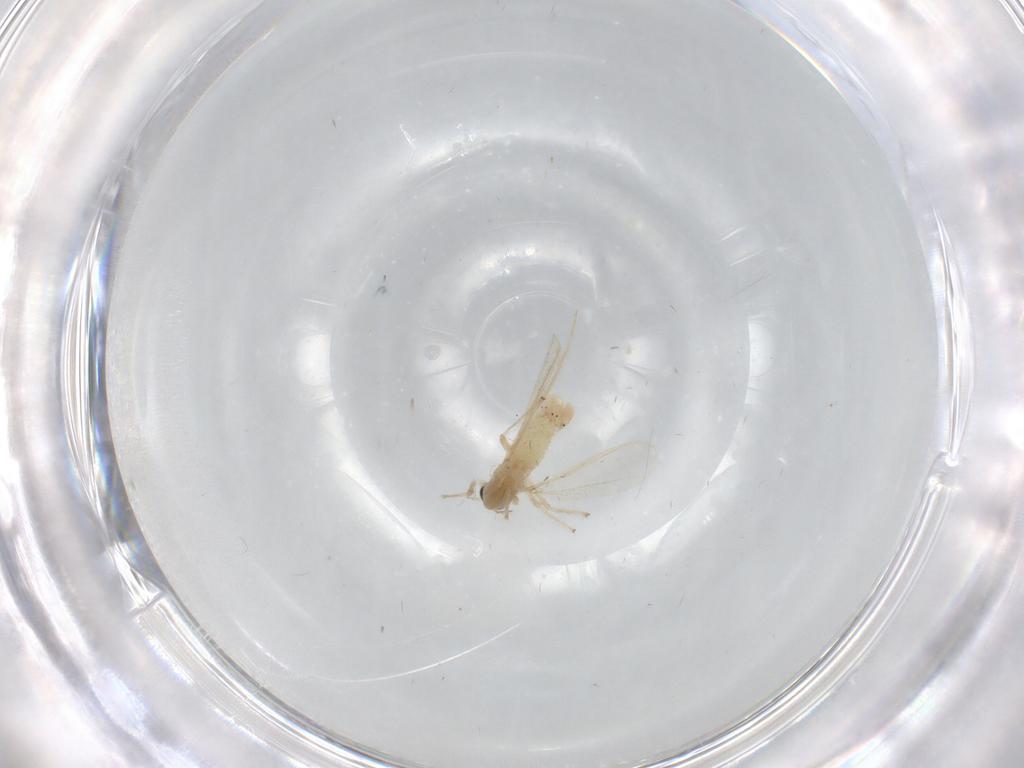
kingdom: Animalia
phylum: Arthropoda
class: Insecta
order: Diptera
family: Chironomidae
